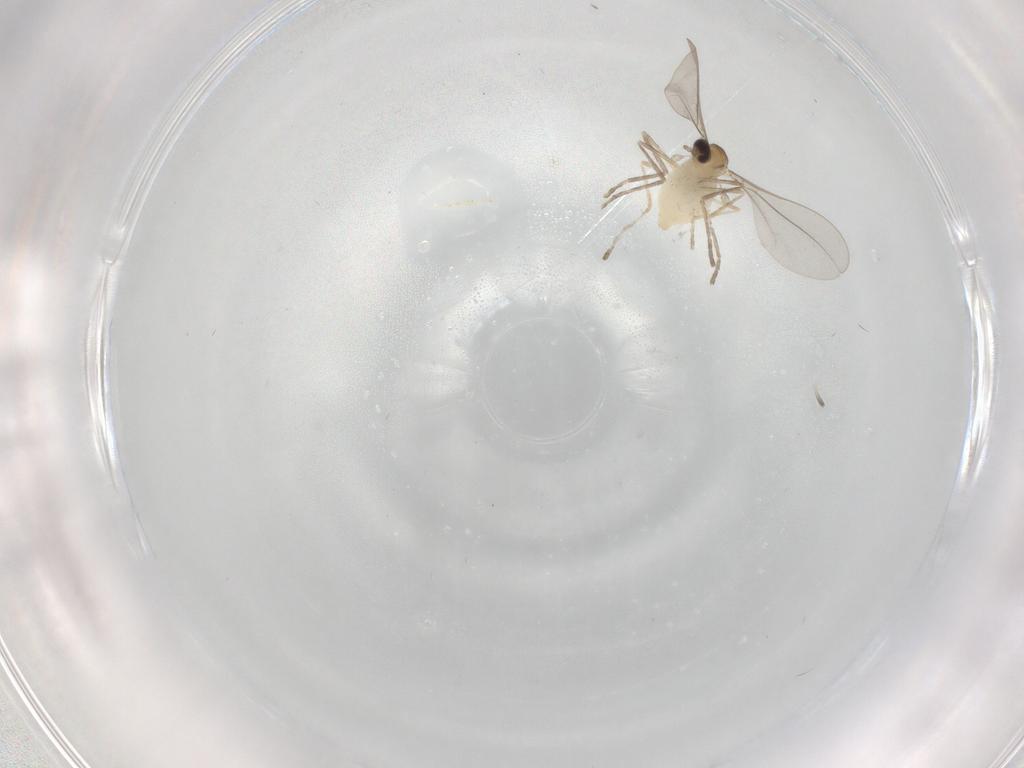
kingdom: Animalia
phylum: Arthropoda
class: Insecta
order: Diptera
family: Cecidomyiidae
